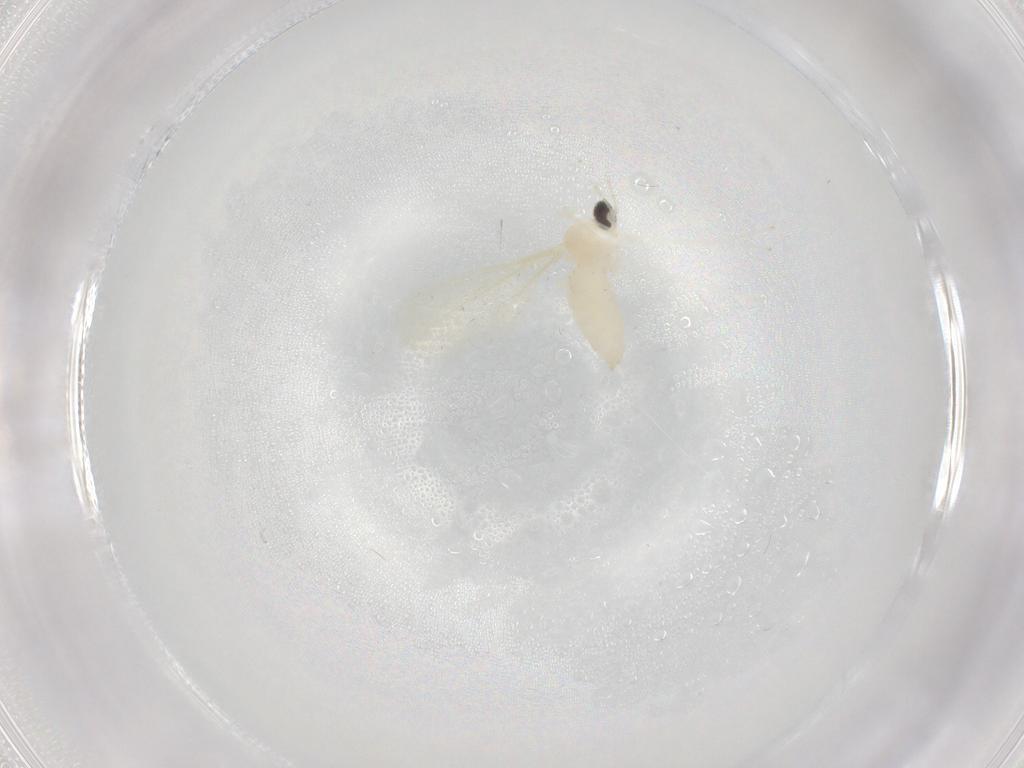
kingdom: Animalia
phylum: Arthropoda
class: Insecta
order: Diptera
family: Cecidomyiidae
